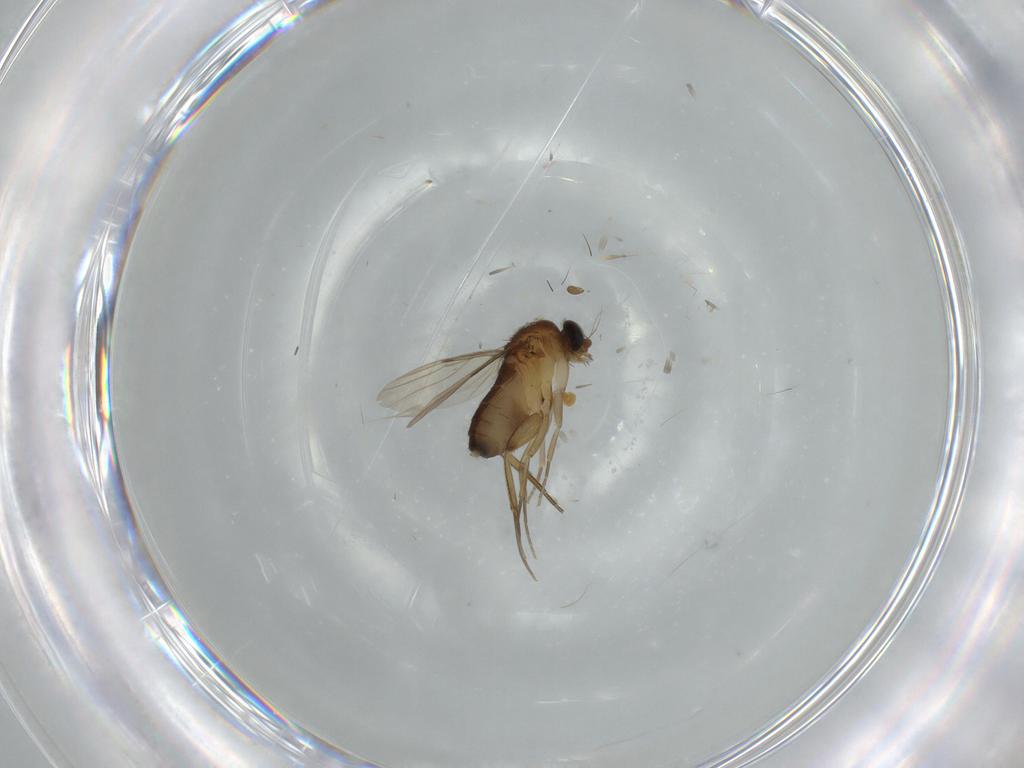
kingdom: Animalia
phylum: Arthropoda
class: Insecta
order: Diptera
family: Phoridae
